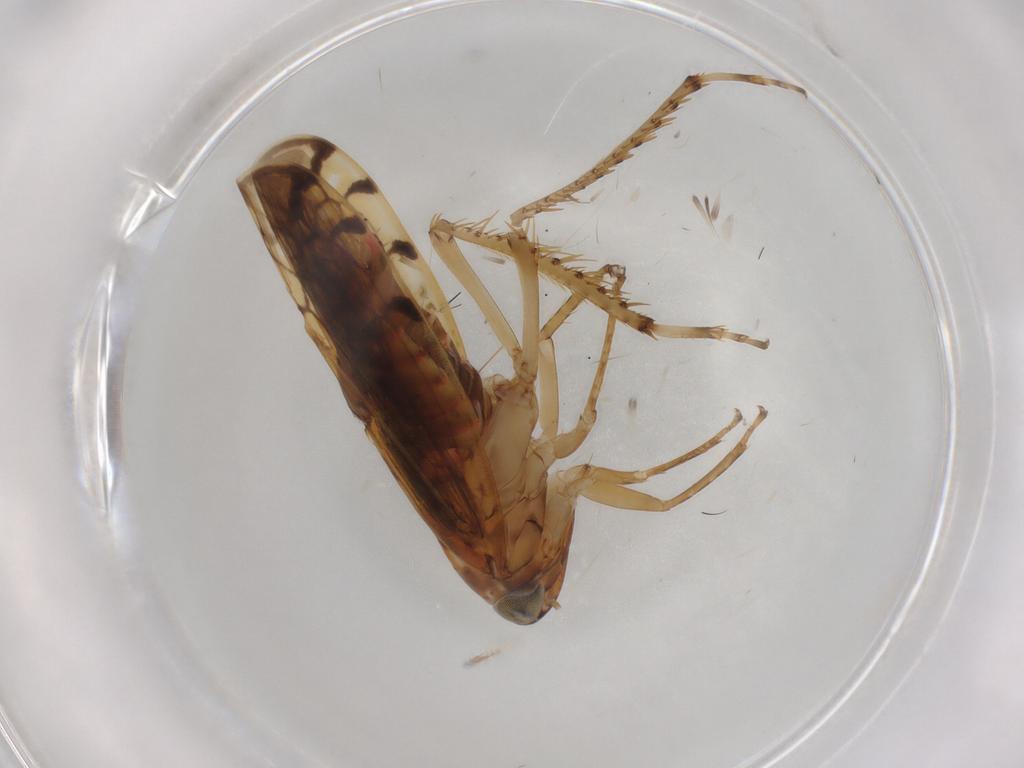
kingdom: Animalia
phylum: Arthropoda
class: Insecta
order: Hemiptera
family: Cicadellidae
